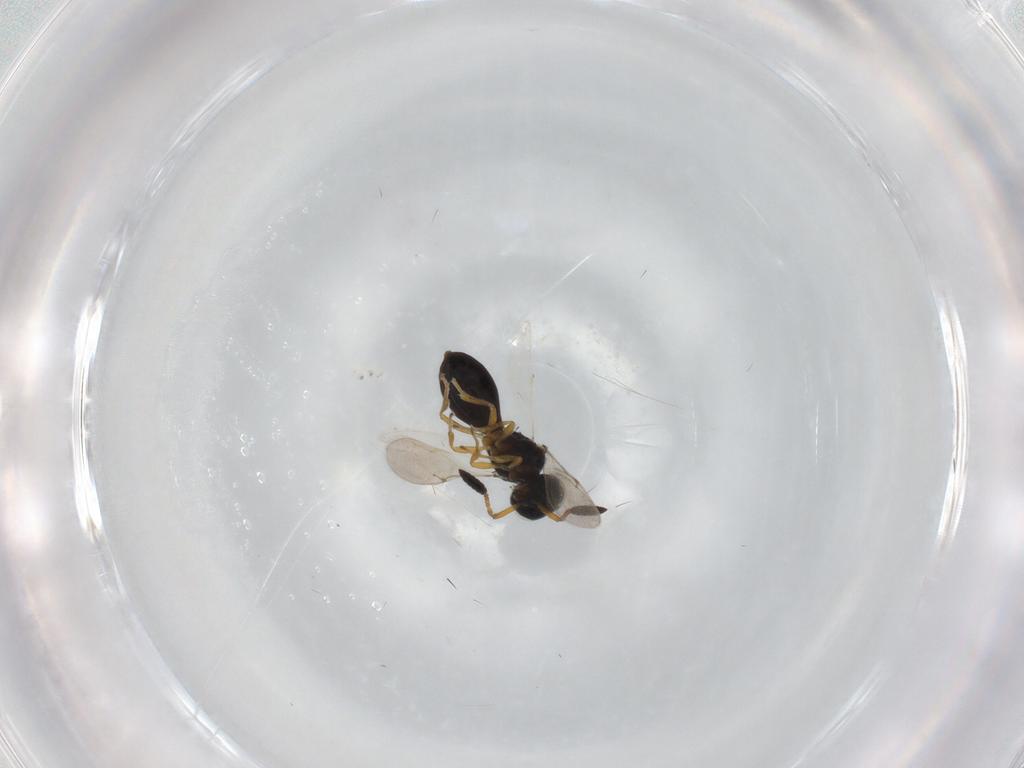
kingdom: Animalia
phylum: Arthropoda
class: Insecta
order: Hymenoptera
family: Scelionidae
